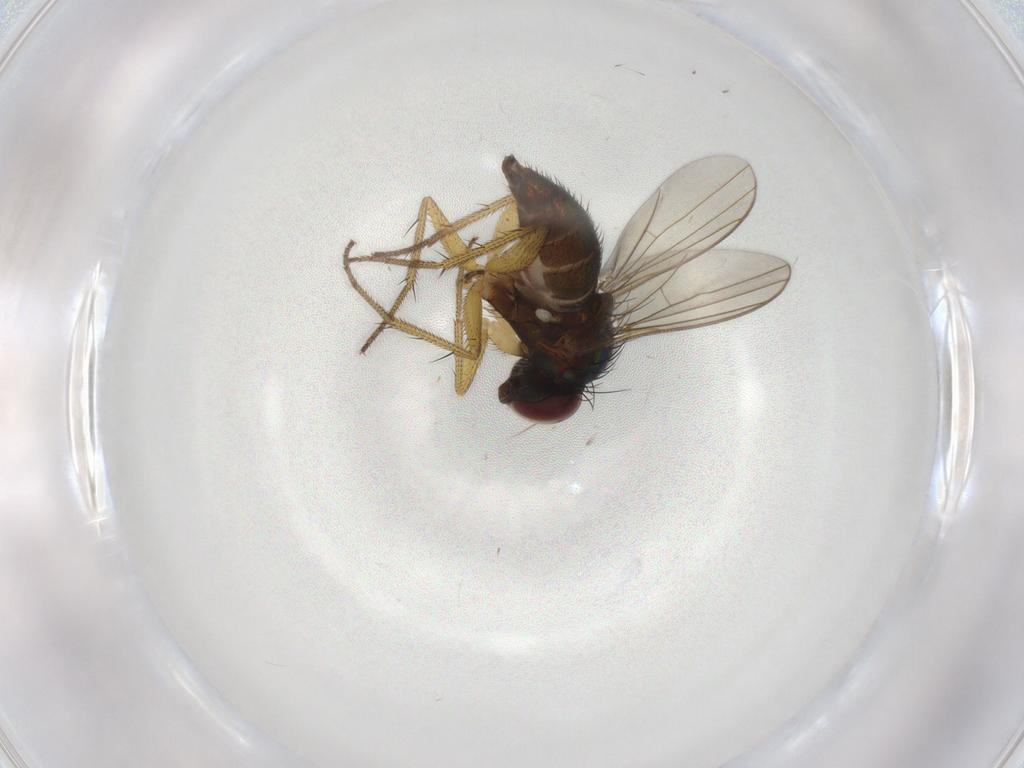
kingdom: Animalia
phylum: Arthropoda
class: Insecta
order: Diptera
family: Dolichopodidae
